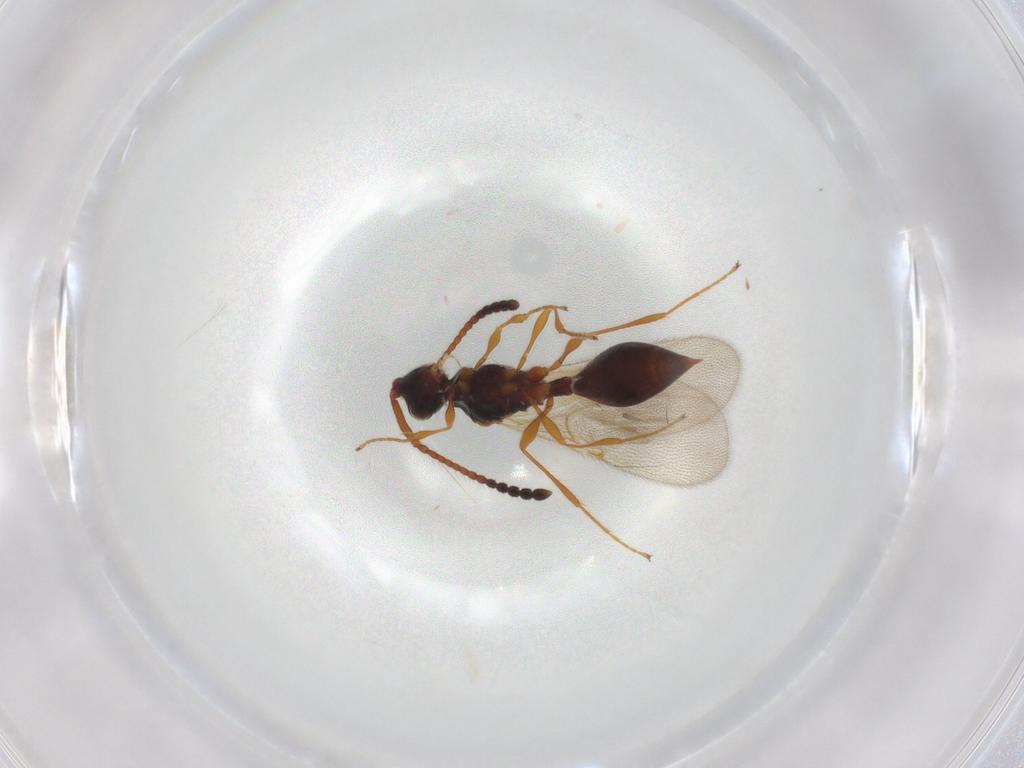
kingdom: Animalia
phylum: Arthropoda
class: Insecta
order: Hymenoptera
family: Diapriidae
